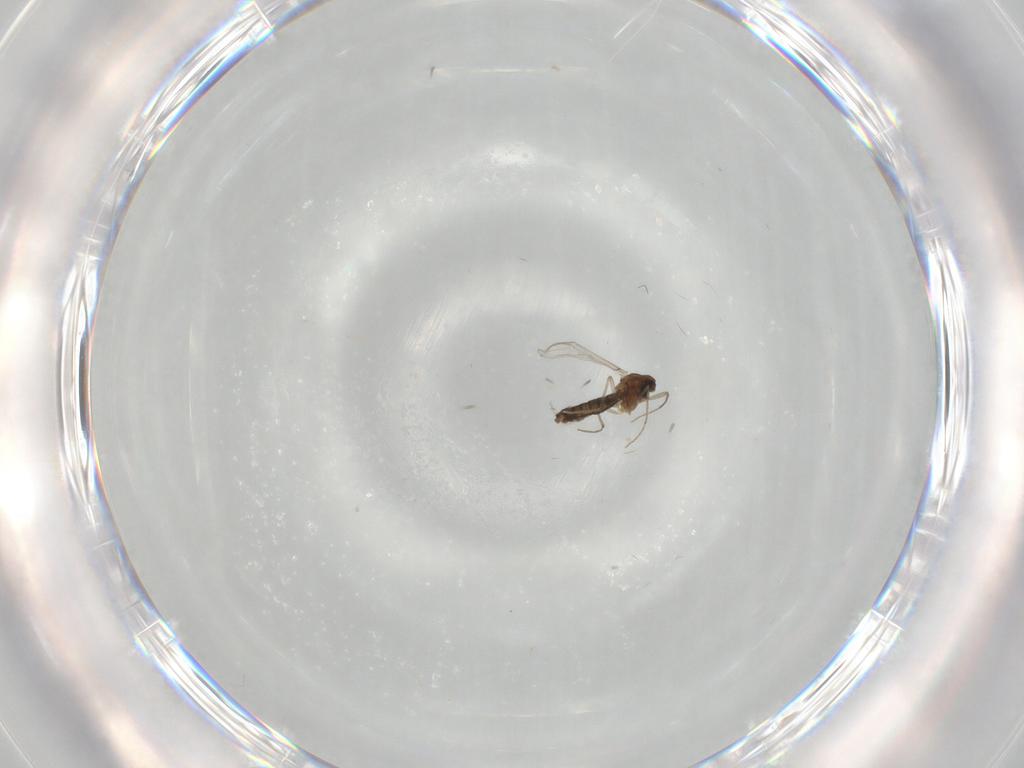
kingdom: Animalia
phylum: Arthropoda
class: Insecta
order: Diptera
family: Chironomidae
